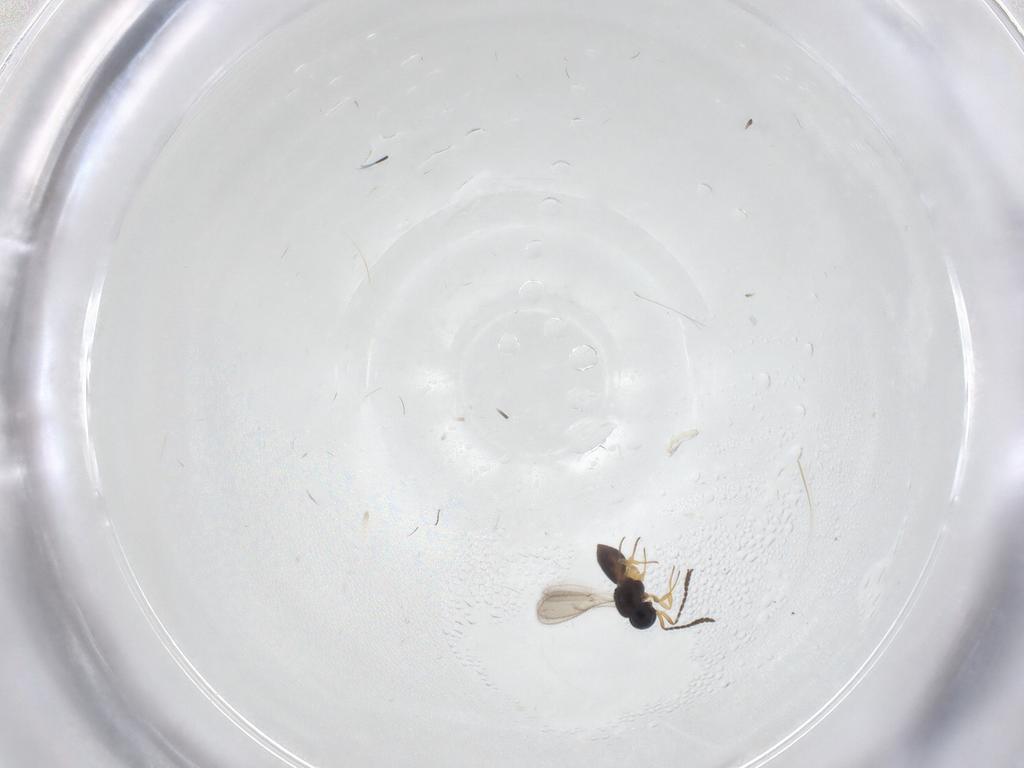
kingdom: Animalia
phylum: Arthropoda
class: Insecta
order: Hymenoptera
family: Scelionidae
